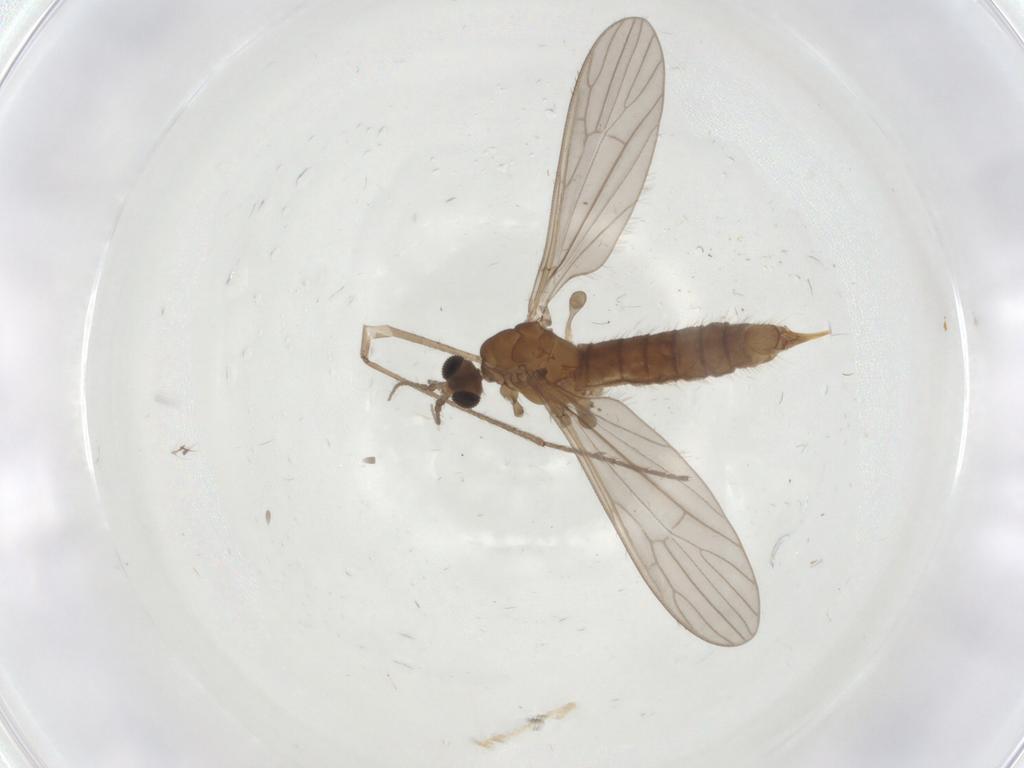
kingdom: Animalia
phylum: Arthropoda
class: Insecta
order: Diptera
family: Limoniidae
